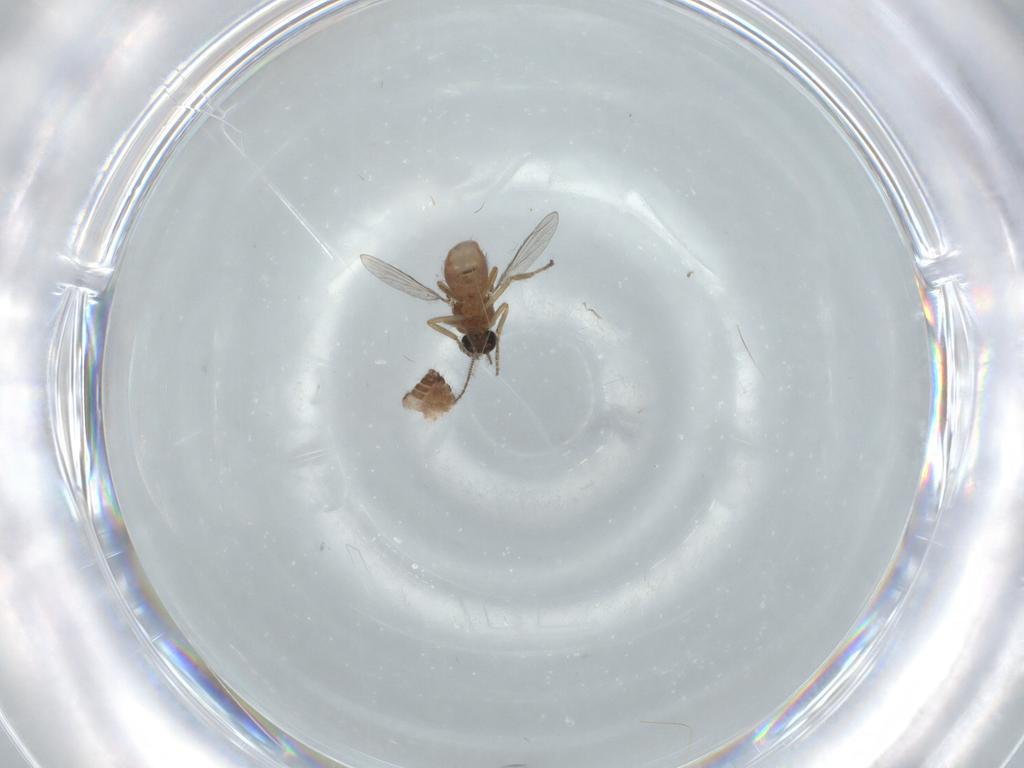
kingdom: Animalia
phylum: Arthropoda
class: Insecta
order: Diptera
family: Ceratopogonidae
